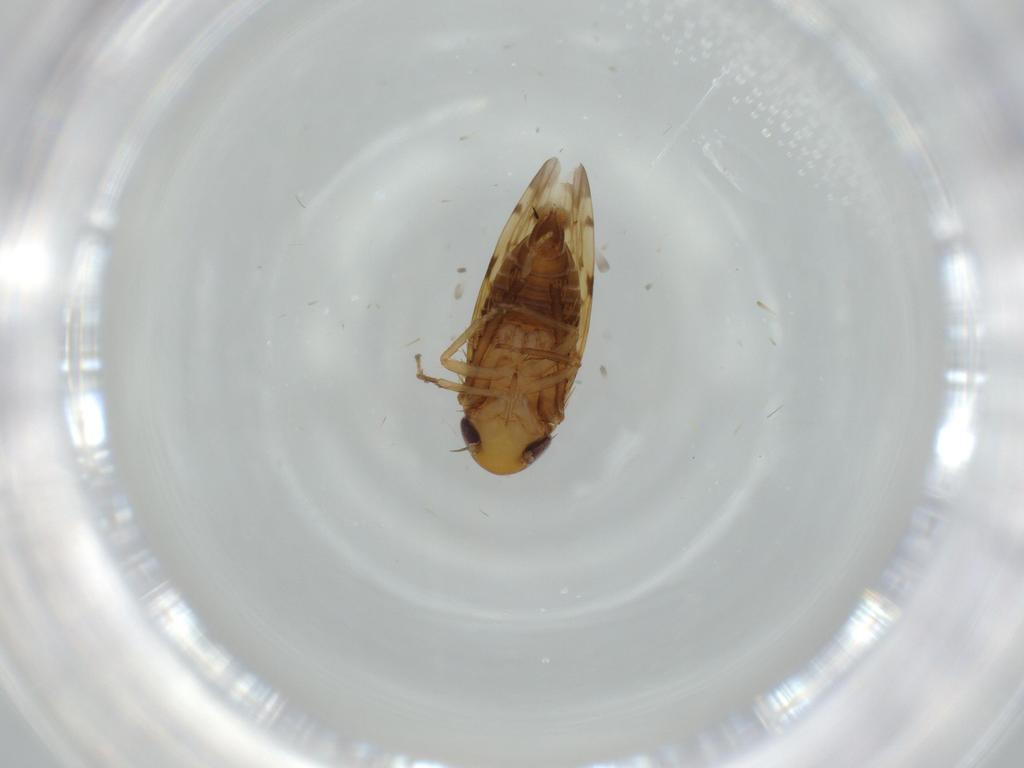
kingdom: Animalia
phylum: Arthropoda
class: Insecta
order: Hemiptera
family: Cicadellidae
